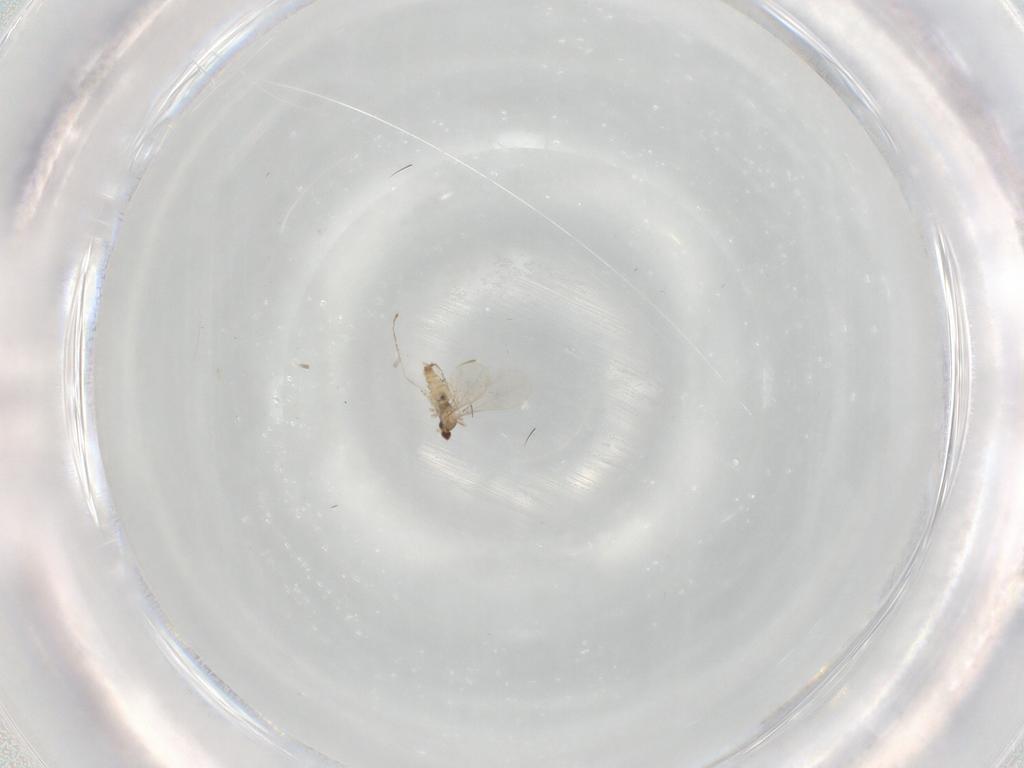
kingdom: Animalia
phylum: Arthropoda
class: Insecta
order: Diptera
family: Cecidomyiidae
